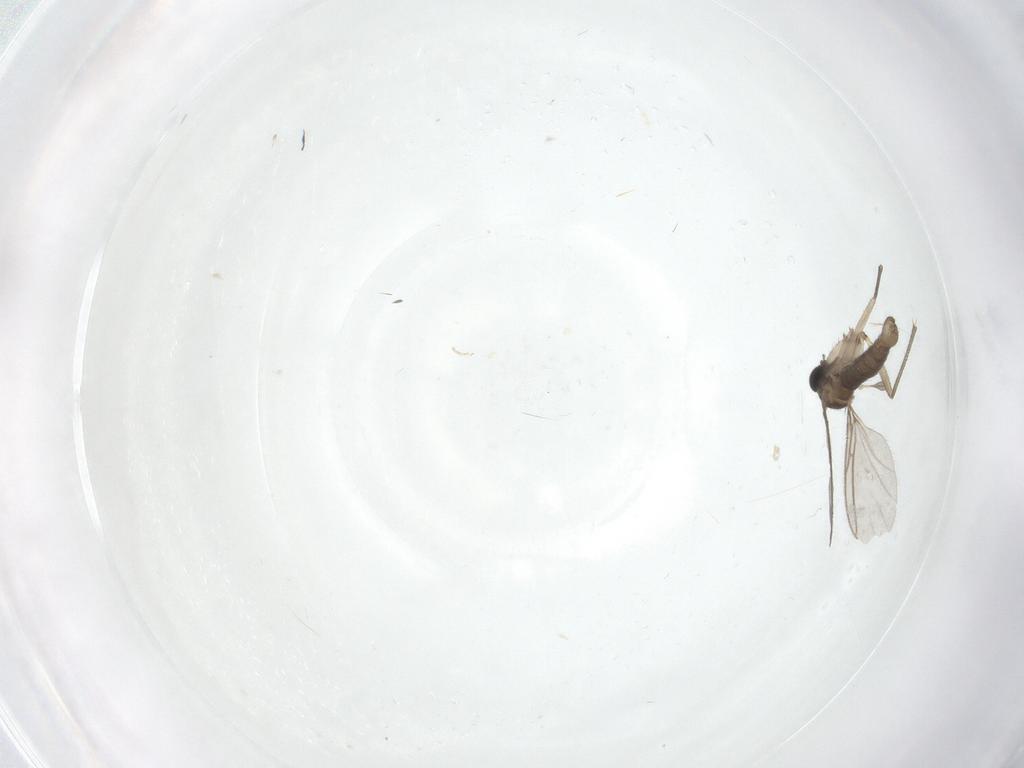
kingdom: Animalia
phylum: Arthropoda
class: Insecta
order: Diptera
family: Sciaridae
